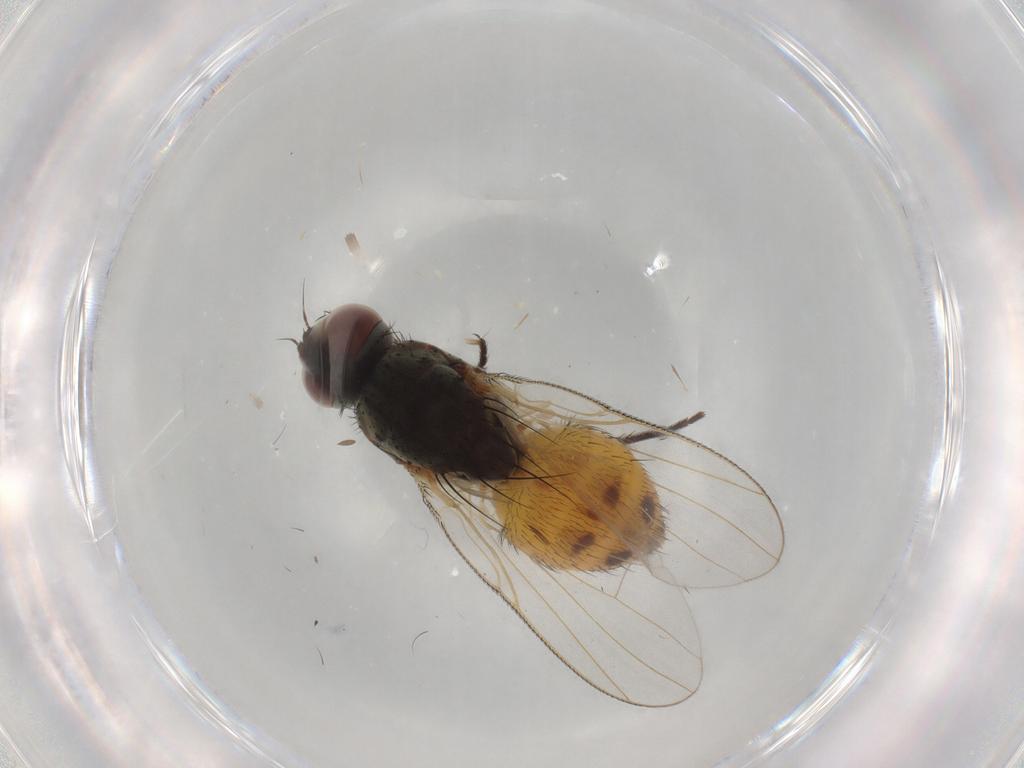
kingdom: Animalia
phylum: Arthropoda
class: Insecta
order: Diptera
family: Muscidae
